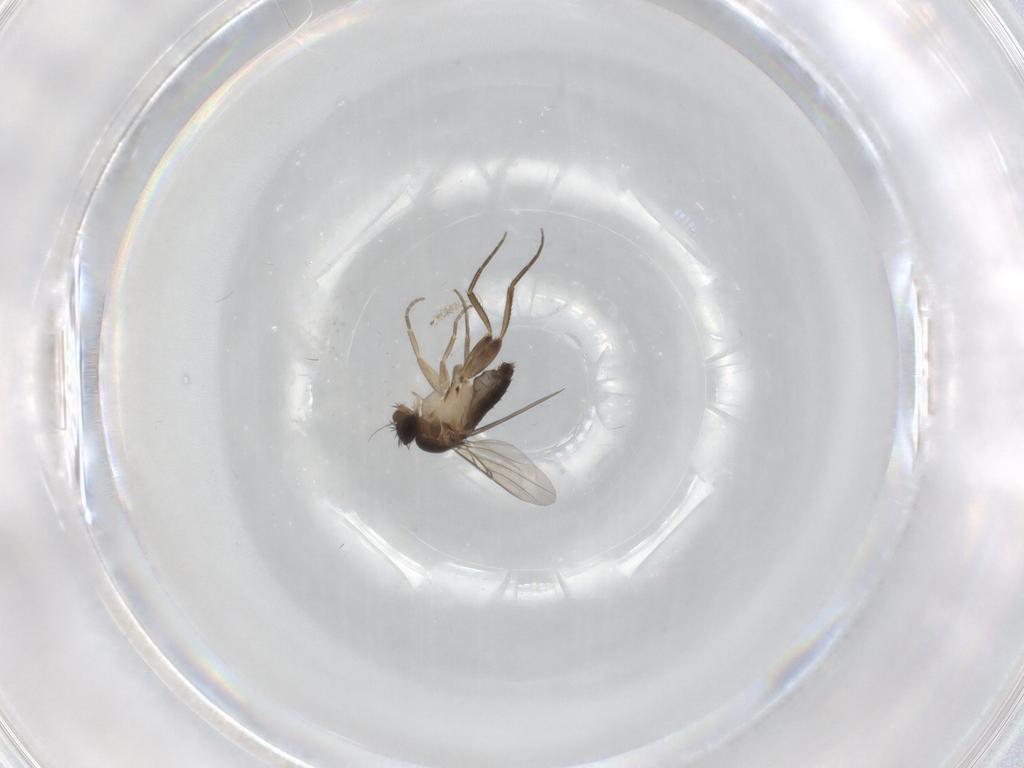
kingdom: Animalia
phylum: Arthropoda
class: Insecta
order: Diptera
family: Phoridae
